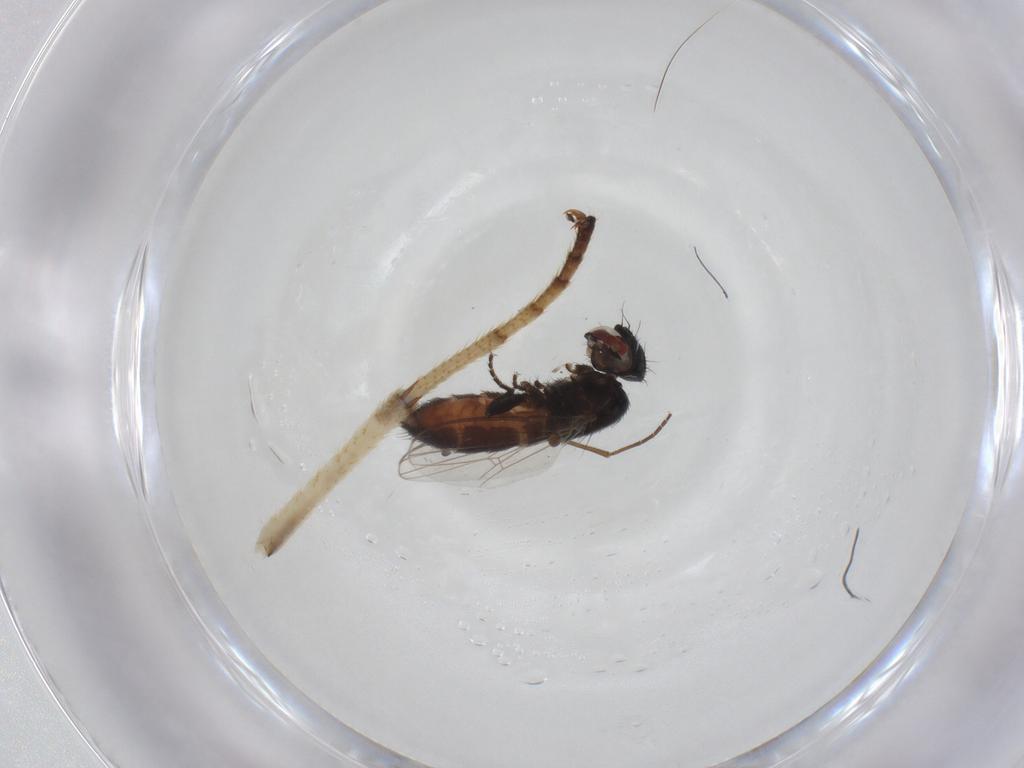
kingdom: Animalia
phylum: Arthropoda
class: Insecta
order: Diptera
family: Milichiidae
